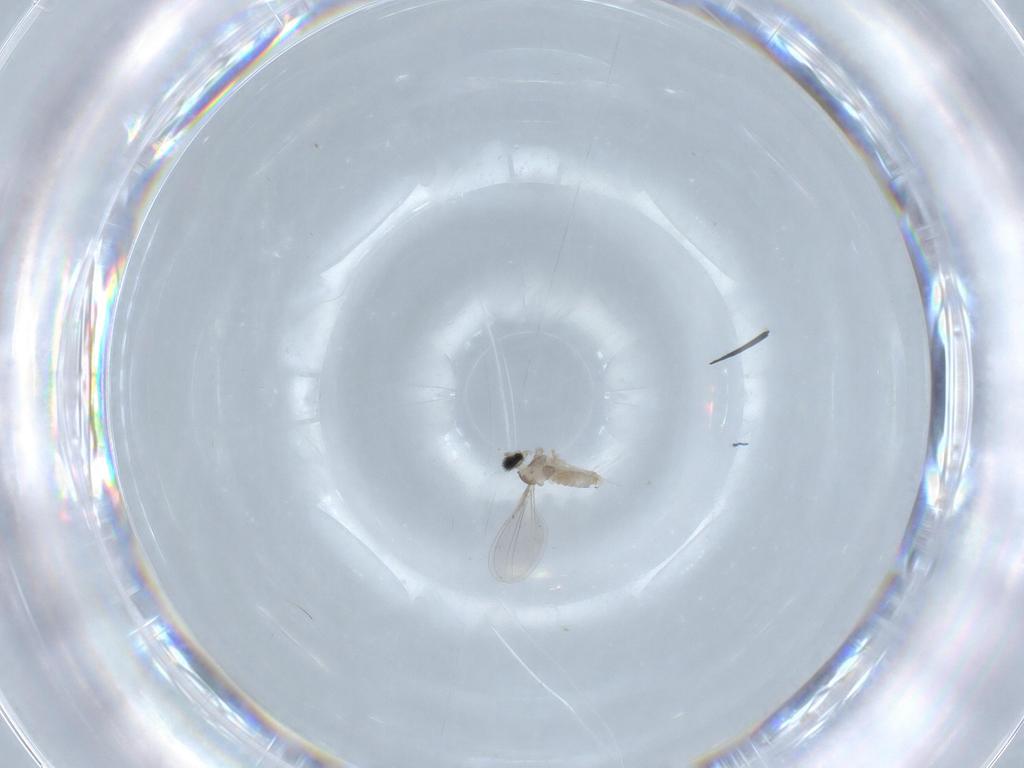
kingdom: Animalia
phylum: Arthropoda
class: Insecta
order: Diptera
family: Cecidomyiidae
